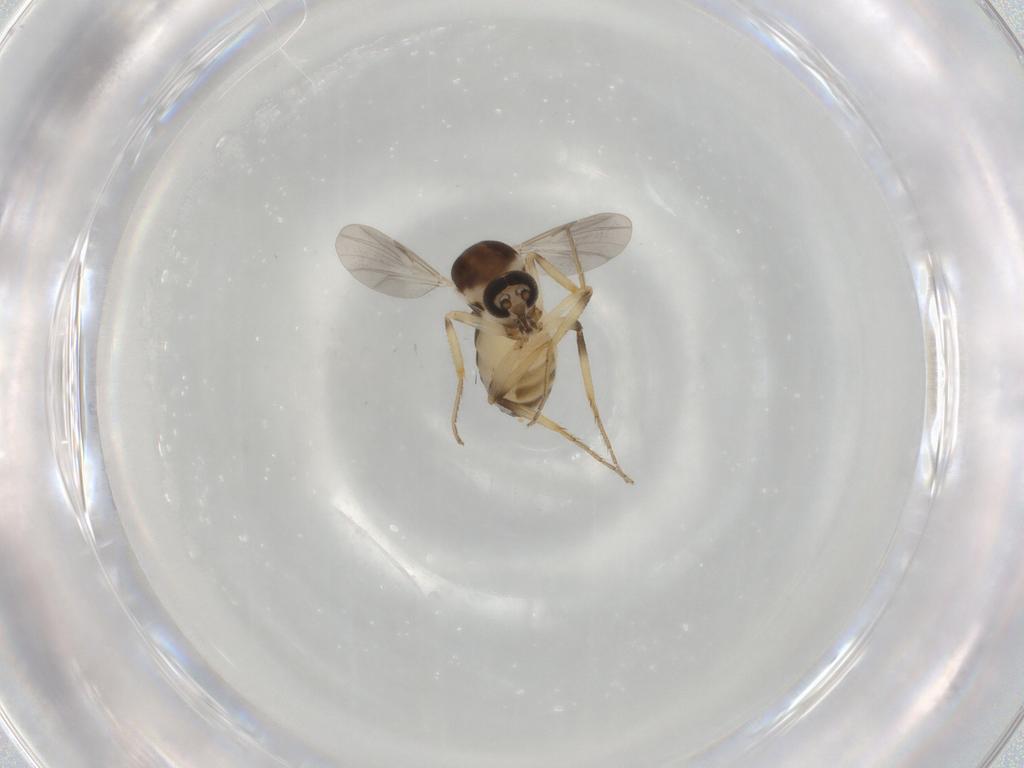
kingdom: Animalia
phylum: Arthropoda
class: Insecta
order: Diptera
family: Ceratopogonidae
